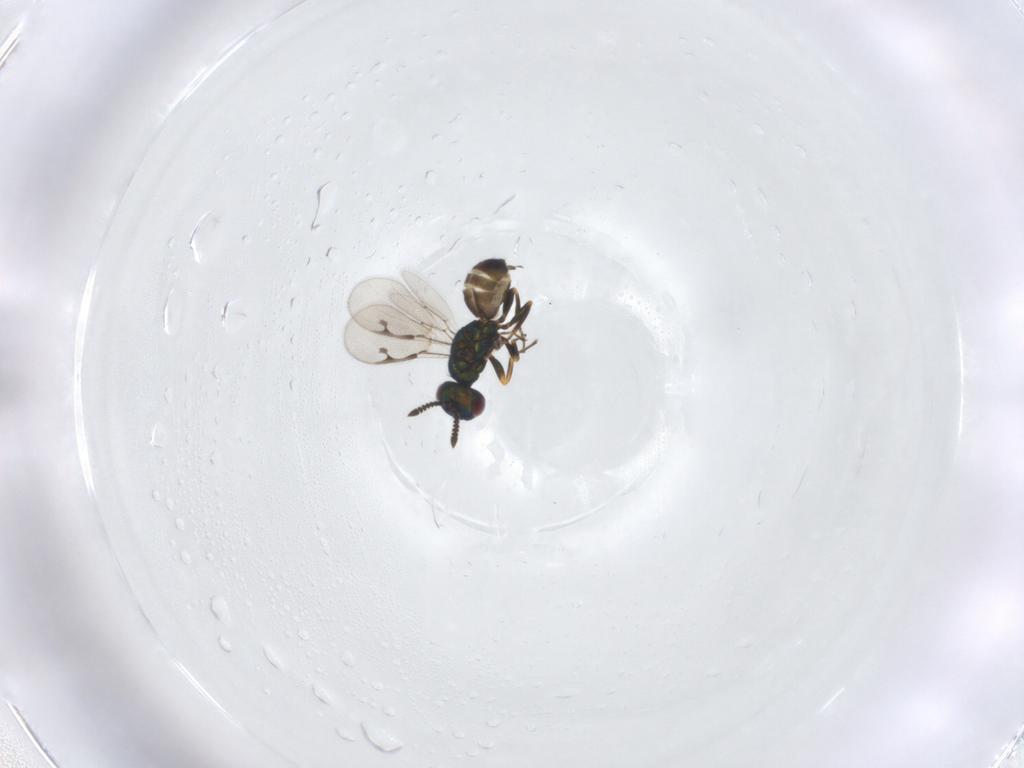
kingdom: Animalia
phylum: Arthropoda
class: Insecta
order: Hymenoptera
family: Pteromalidae
